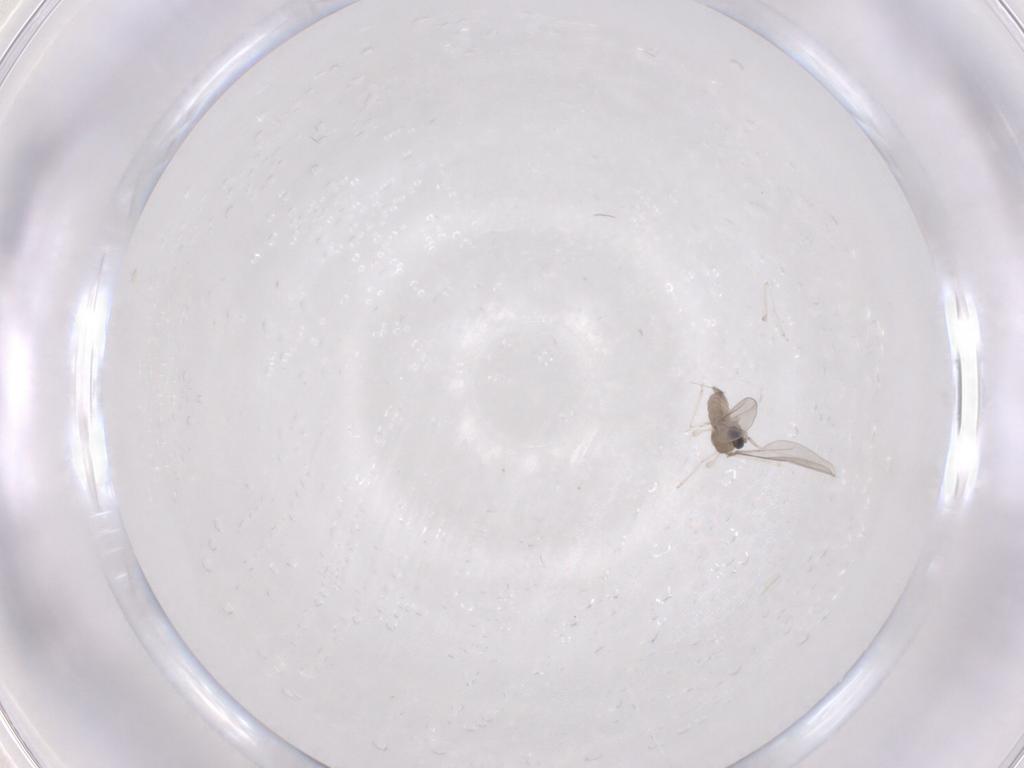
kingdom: Animalia
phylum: Arthropoda
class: Insecta
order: Diptera
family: Cecidomyiidae
